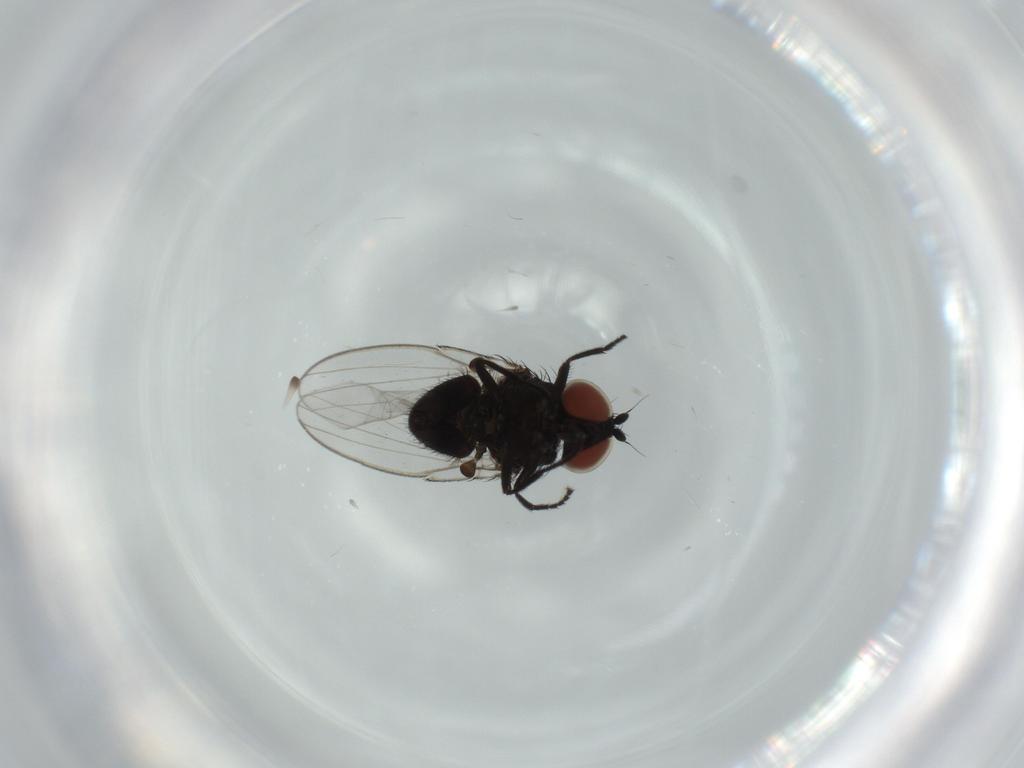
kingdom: Animalia
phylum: Arthropoda
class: Insecta
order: Diptera
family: Milichiidae
